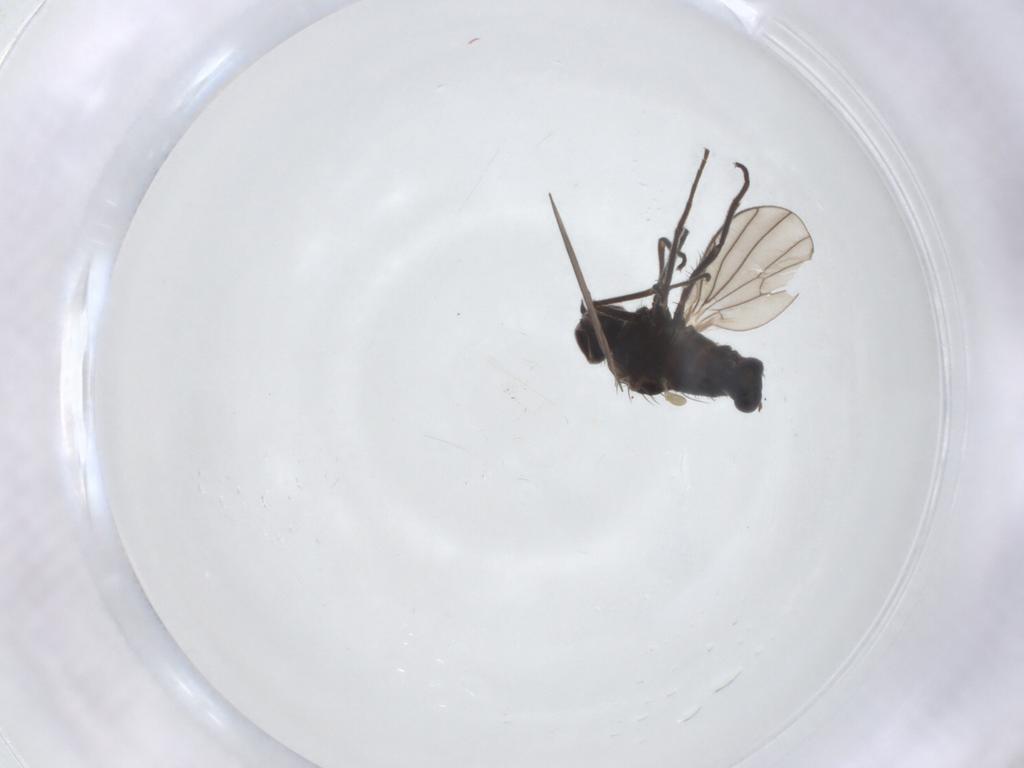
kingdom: Animalia
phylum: Arthropoda
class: Insecta
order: Diptera
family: Dolichopodidae
